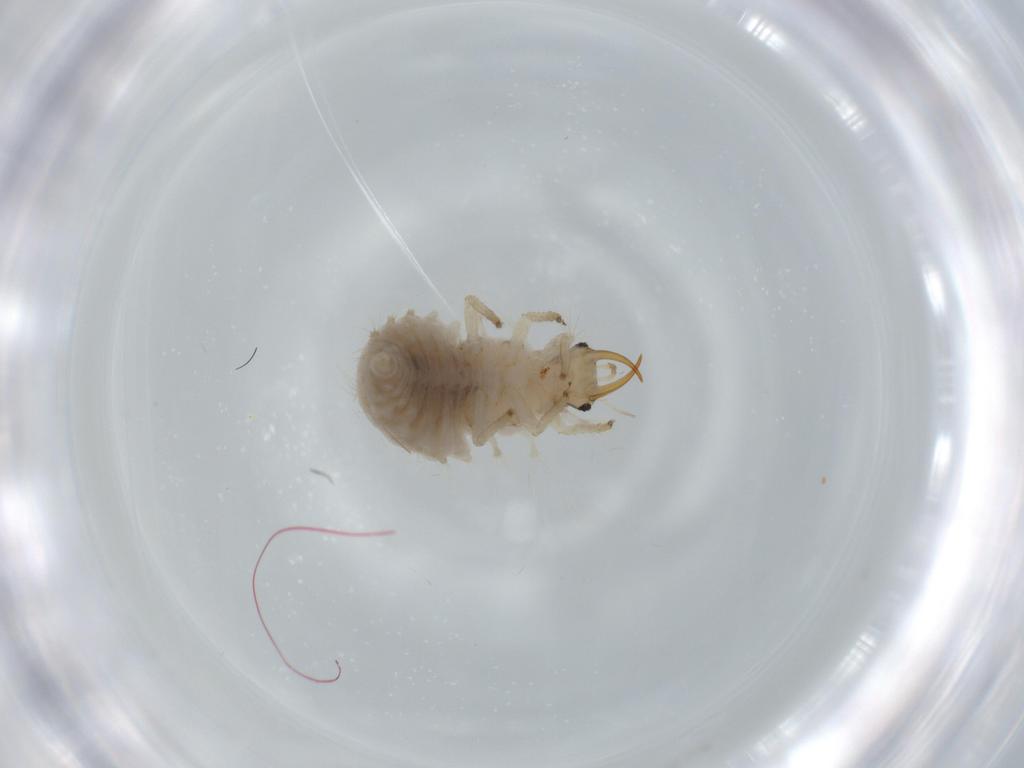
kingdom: Animalia
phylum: Arthropoda
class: Insecta
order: Neuroptera
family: Chrysopidae
